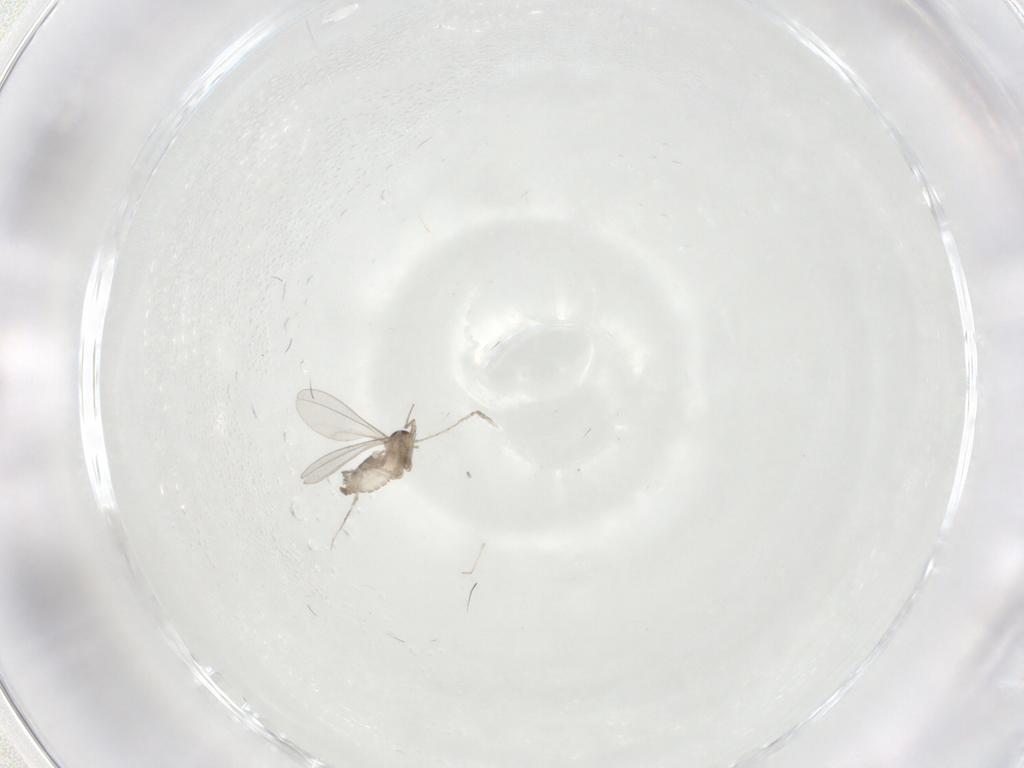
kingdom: Animalia
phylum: Arthropoda
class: Insecta
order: Diptera
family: Cecidomyiidae
